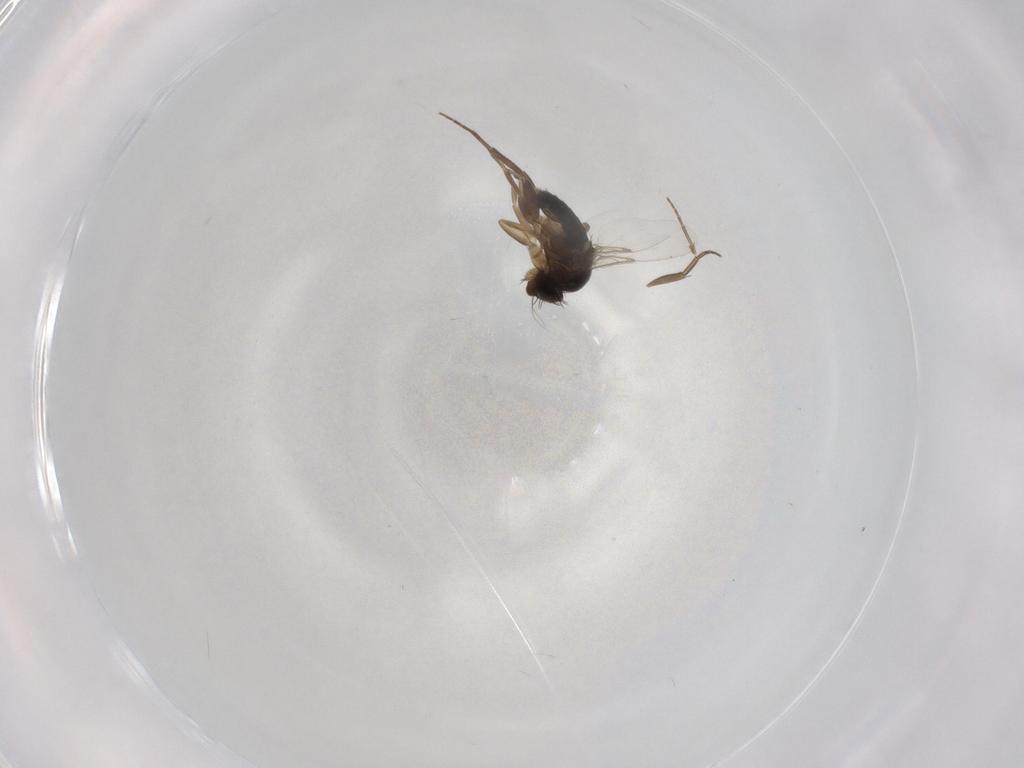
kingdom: Animalia
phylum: Arthropoda
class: Insecta
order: Diptera
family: Phoridae
